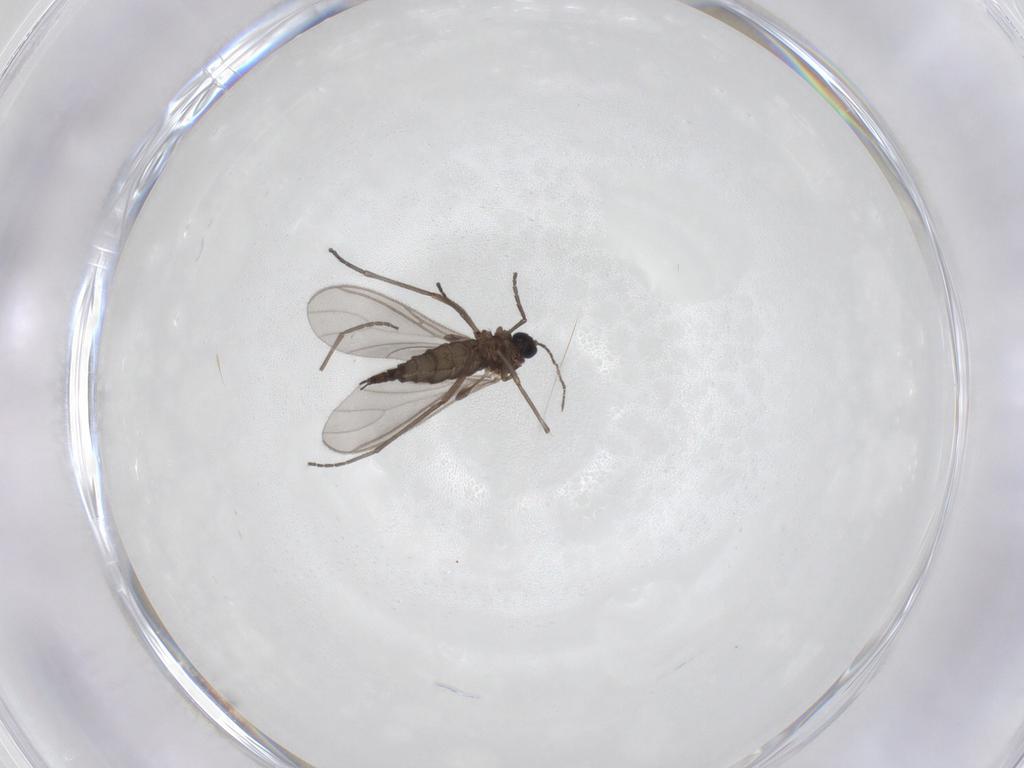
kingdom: Animalia
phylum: Arthropoda
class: Insecta
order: Diptera
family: Sciaridae
